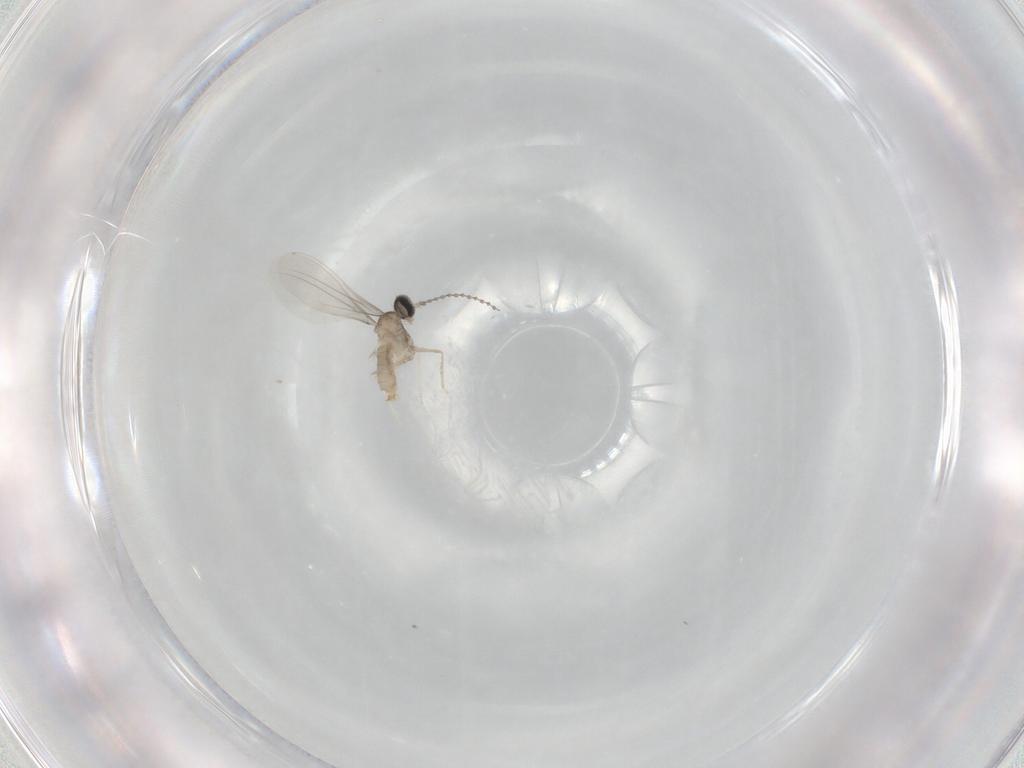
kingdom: Animalia
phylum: Arthropoda
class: Insecta
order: Diptera
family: Cecidomyiidae
